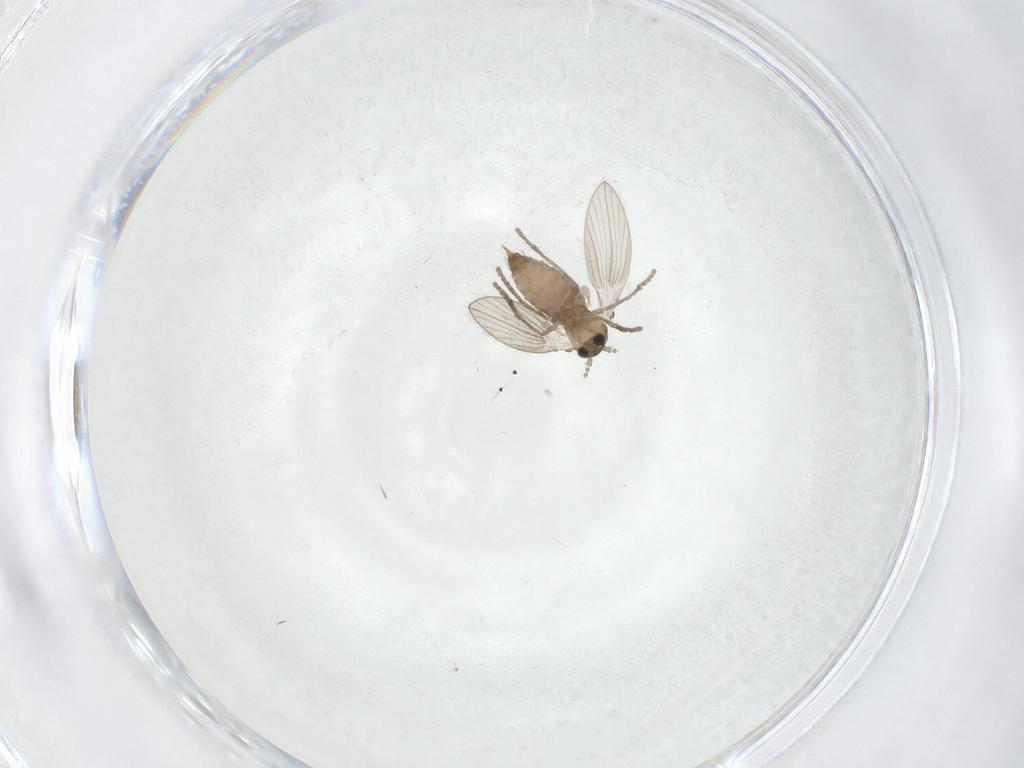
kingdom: Animalia
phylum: Arthropoda
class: Insecta
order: Diptera
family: Psychodidae
